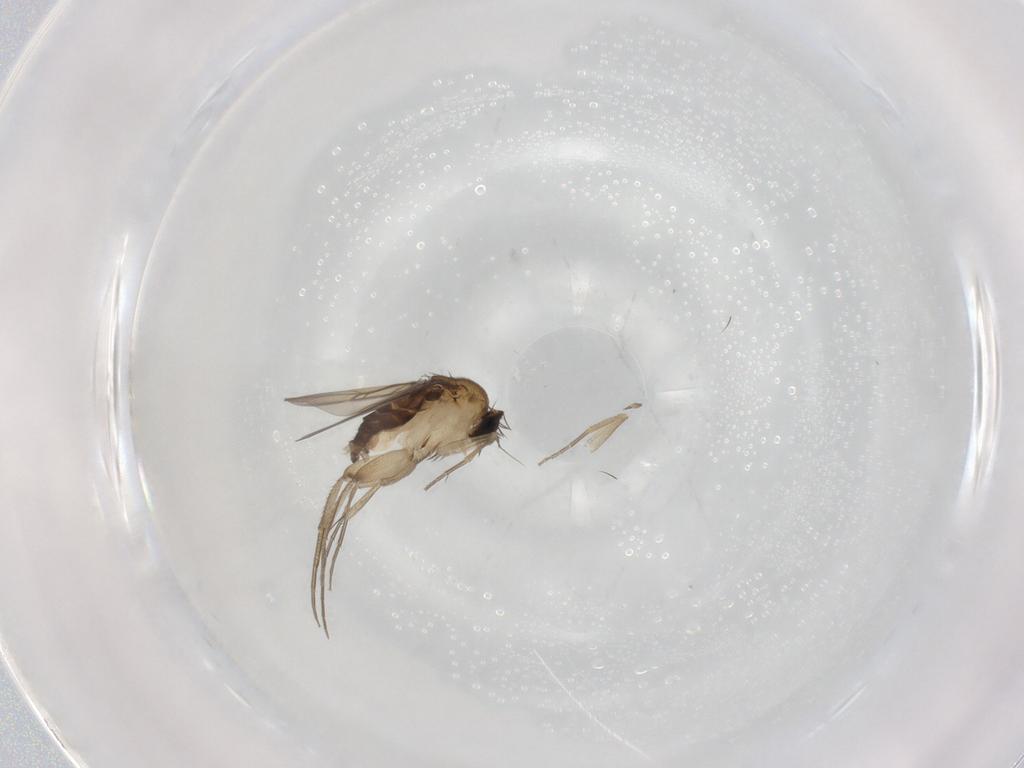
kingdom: Animalia
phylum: Arthropoda
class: Insecta
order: Diptera
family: Phoridae
